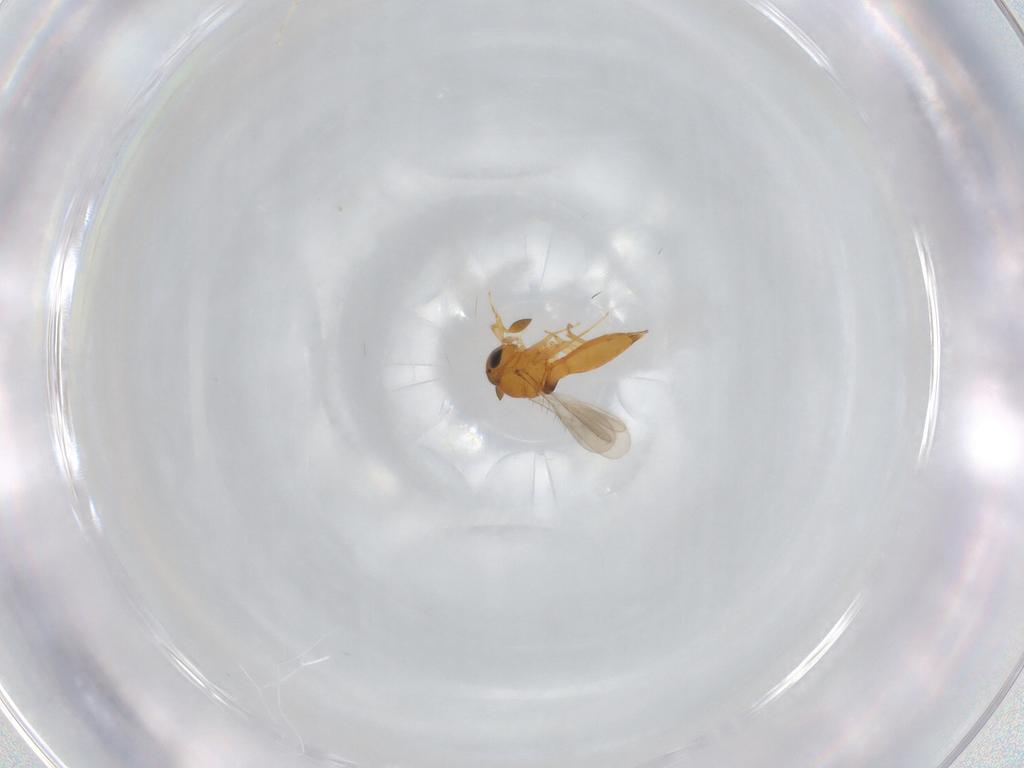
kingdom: Animalia
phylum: Arthropoda
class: Insecta
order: Hymenoptera
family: Scelionidae
